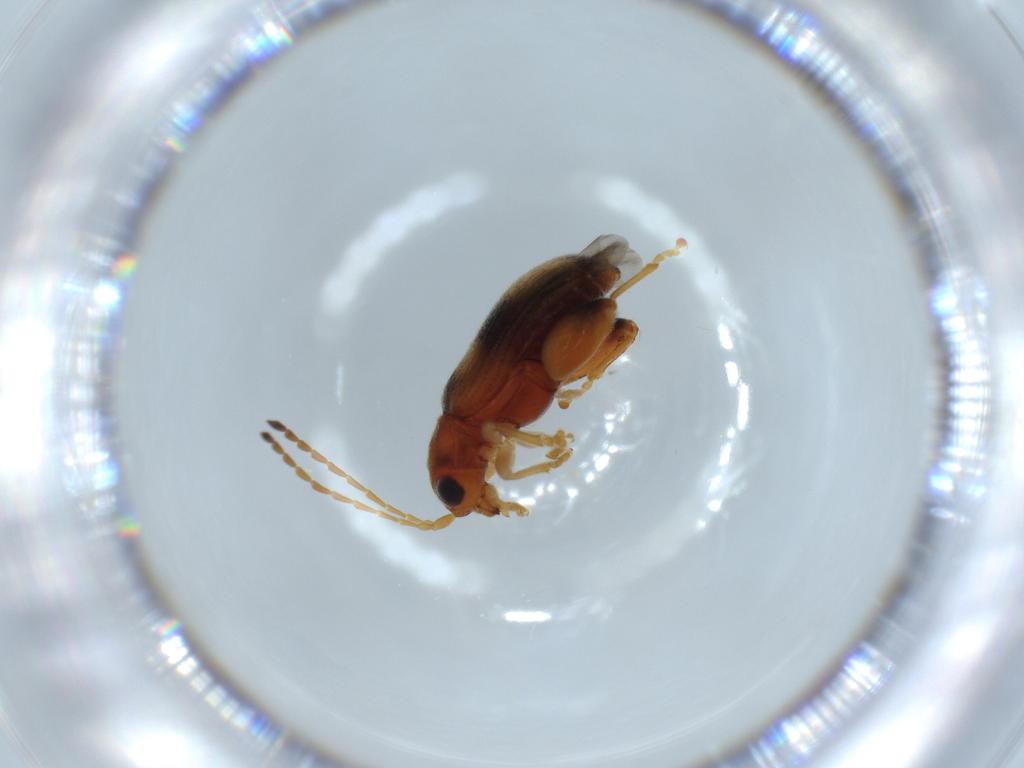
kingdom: Animalia
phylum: Arthropoda
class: Insecta
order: Coleoptera
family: Chrysomelidae
